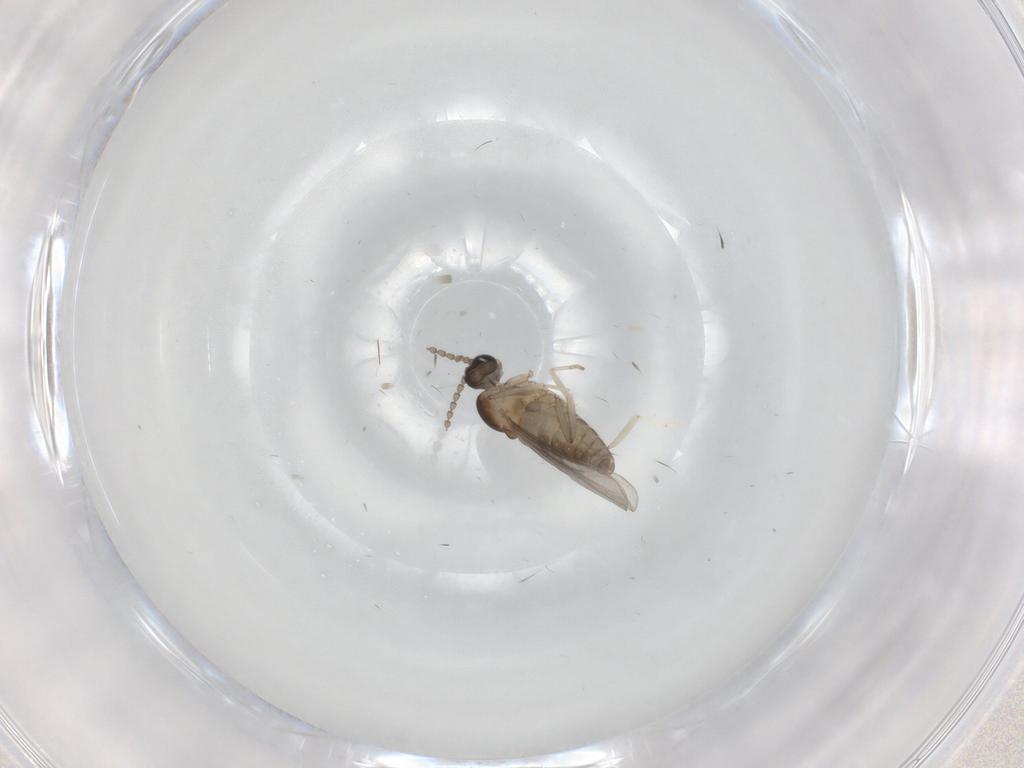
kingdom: Animalia
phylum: Arthropoda
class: Insecta
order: Diptera
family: Cecidomyiidae
